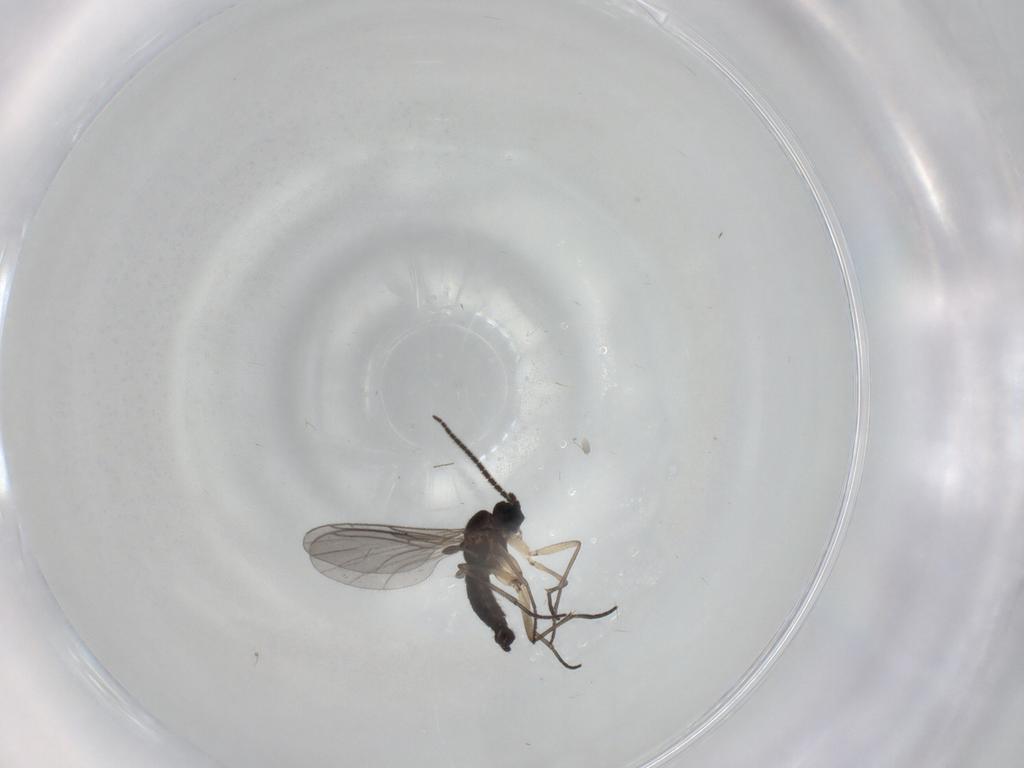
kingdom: Animalia
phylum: Arthropoda
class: Insecta
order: Diptera
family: Sciaridae
